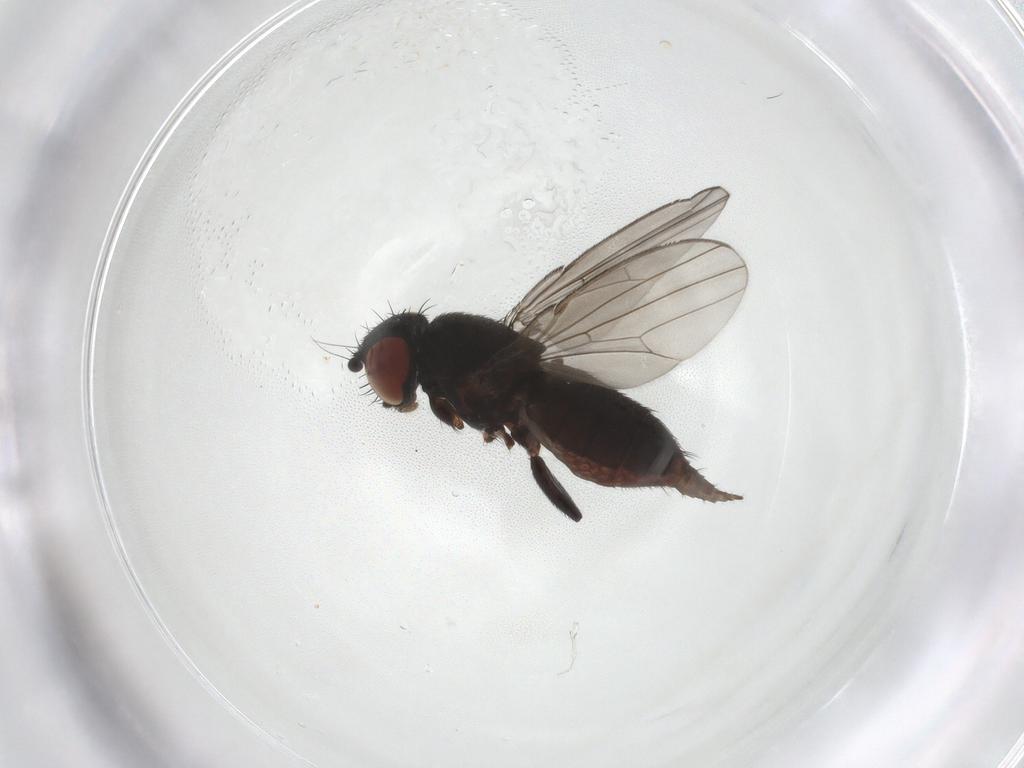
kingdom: Animalia
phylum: Arthropoda
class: Insecta
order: Diptera
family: Milichiidae
